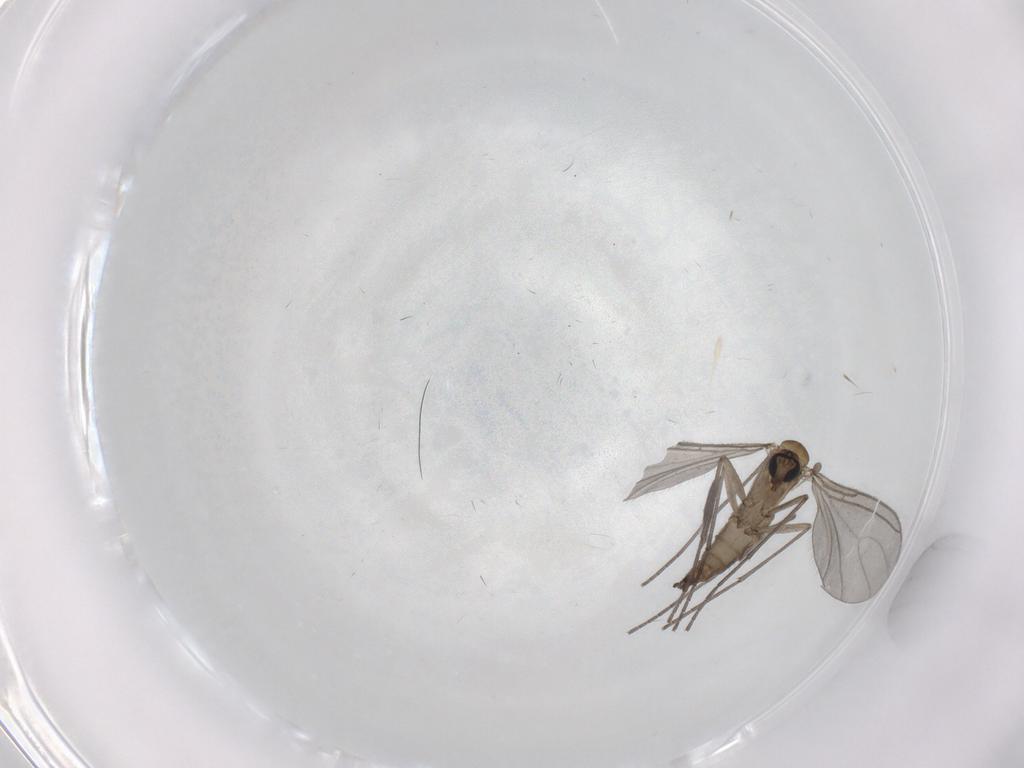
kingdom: Animalia
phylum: Arthropoda
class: Insecta
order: Diptera
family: Sciaridae
